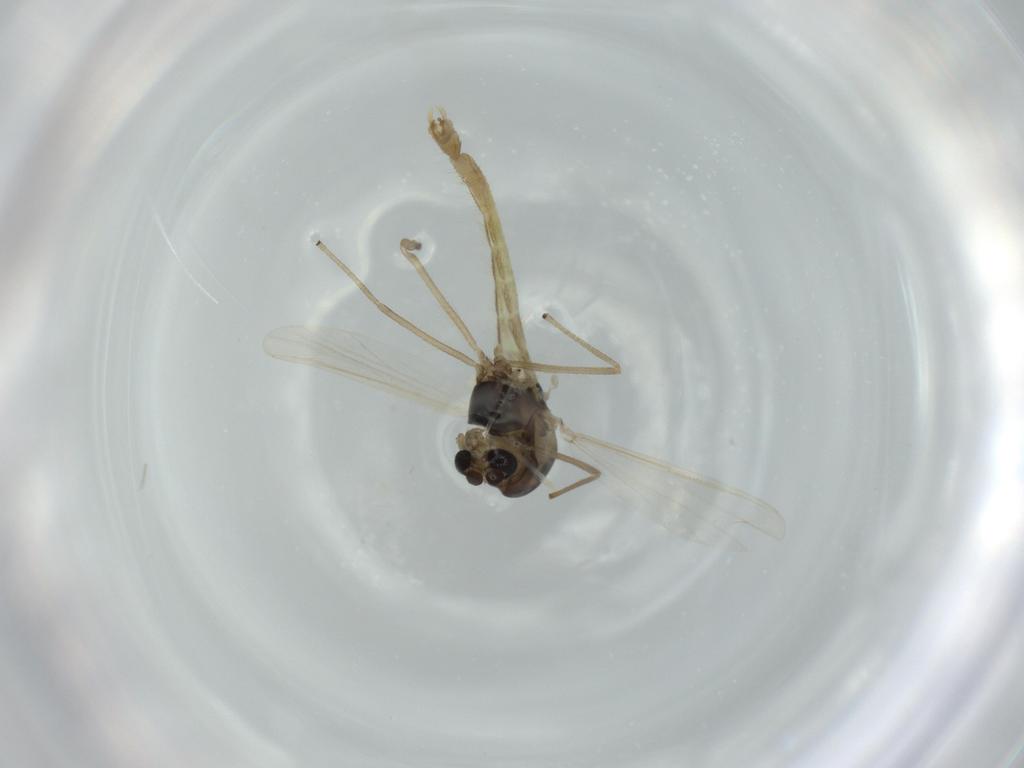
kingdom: Animalia
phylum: Arthropoda
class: Insecta
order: Diptera
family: Chironomidae
